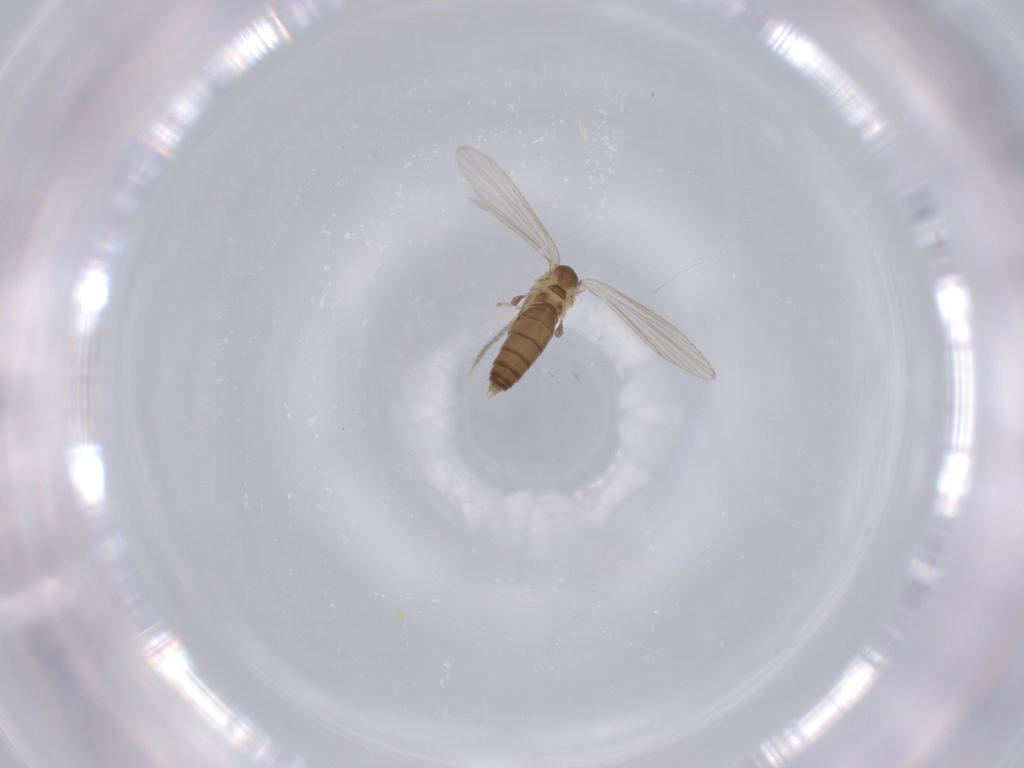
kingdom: Animalia
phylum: Arthropoda
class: Insecta
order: Diptera
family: Psychodidae
